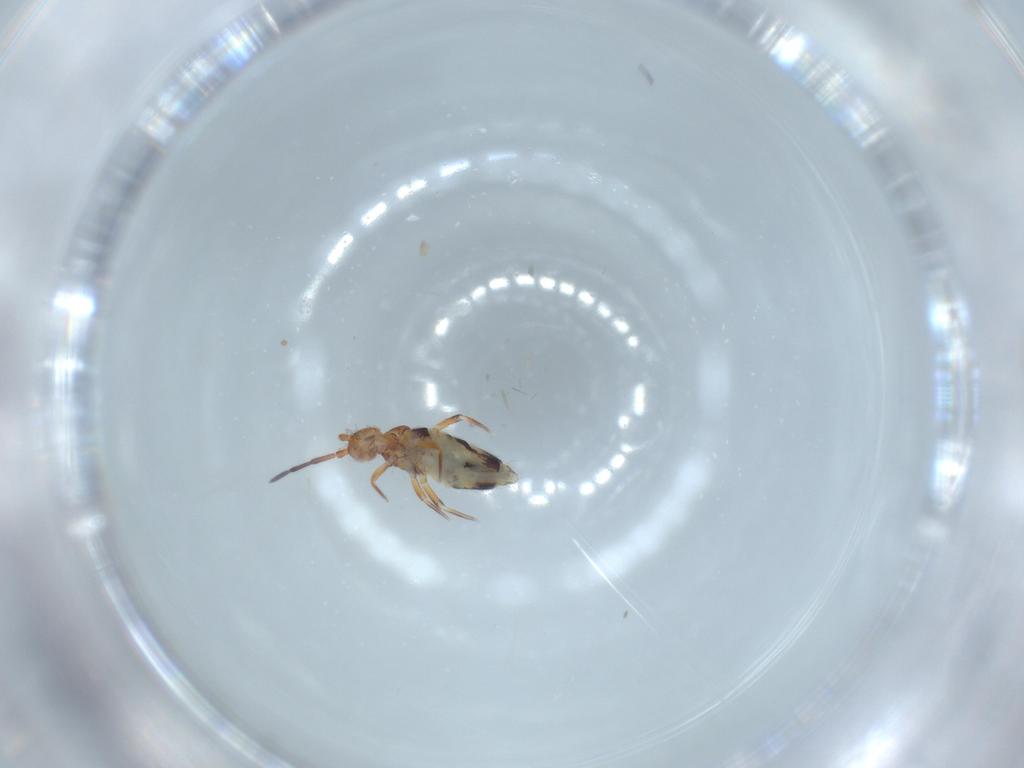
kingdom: Animalia
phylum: Arthropoda
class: Collembola
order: Entomobryomorpha
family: Entomobryidae
